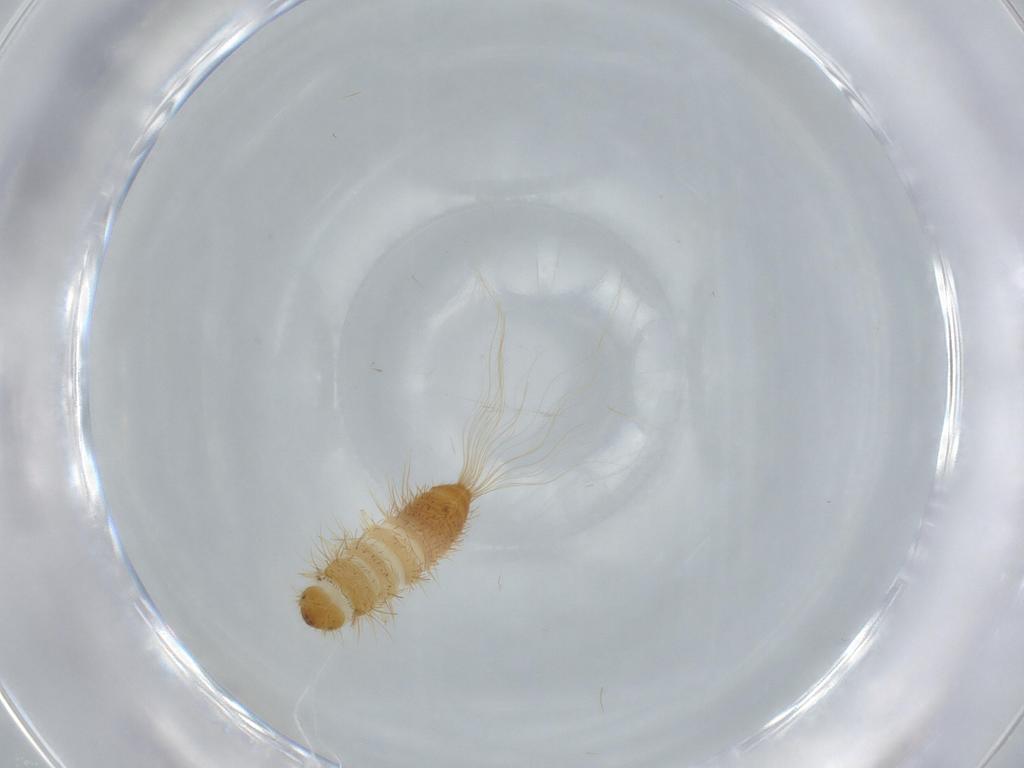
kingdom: Animalia
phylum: Arthropoda
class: Insecta
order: Coleoptera
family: Dermestidae
